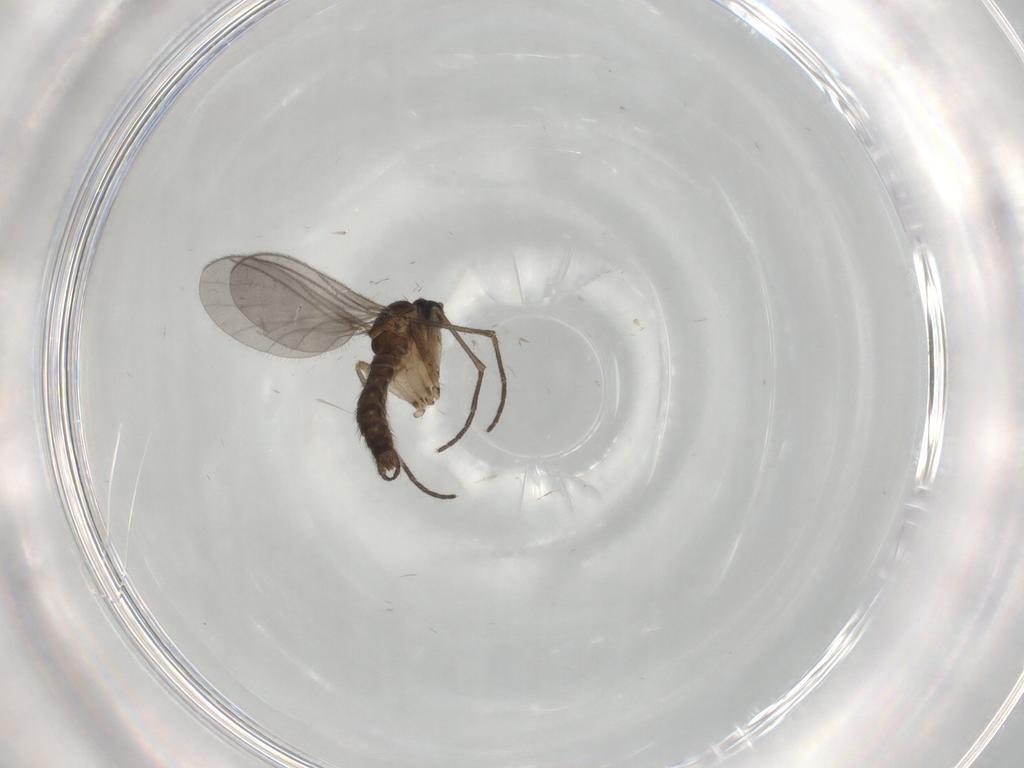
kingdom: Animalia
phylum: Arthropoda
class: Insecta
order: Diptera
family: Sciaridae
